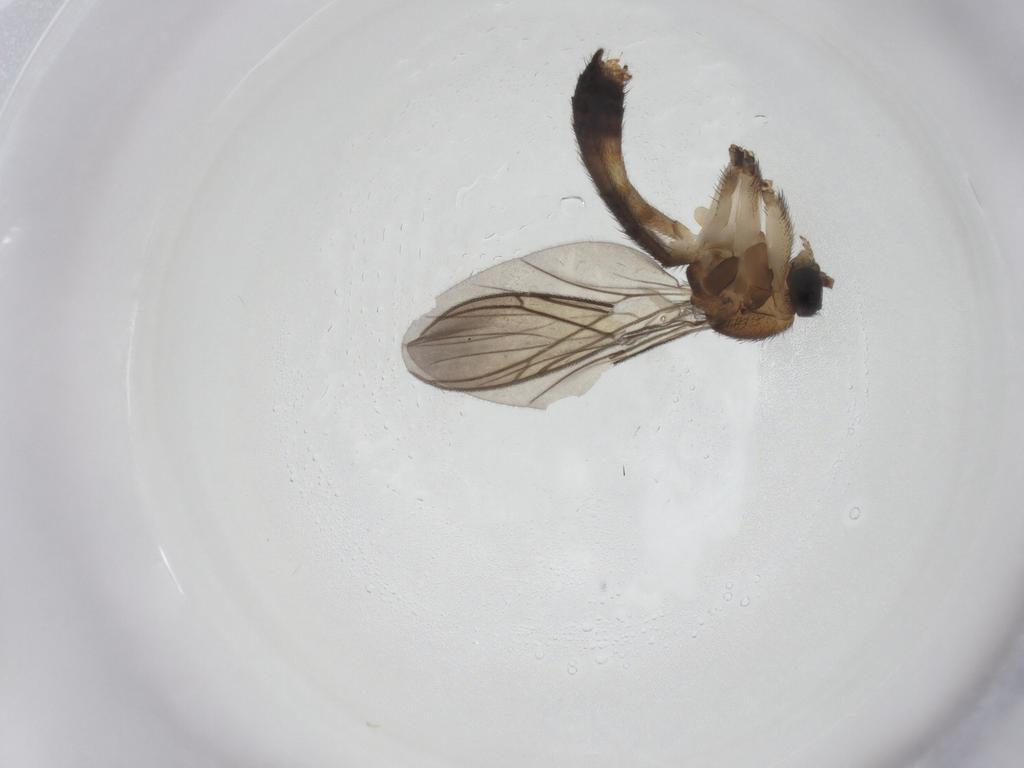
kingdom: Animalia
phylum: Arthropoda
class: Insecta
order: Diptera
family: Keroplatidae
